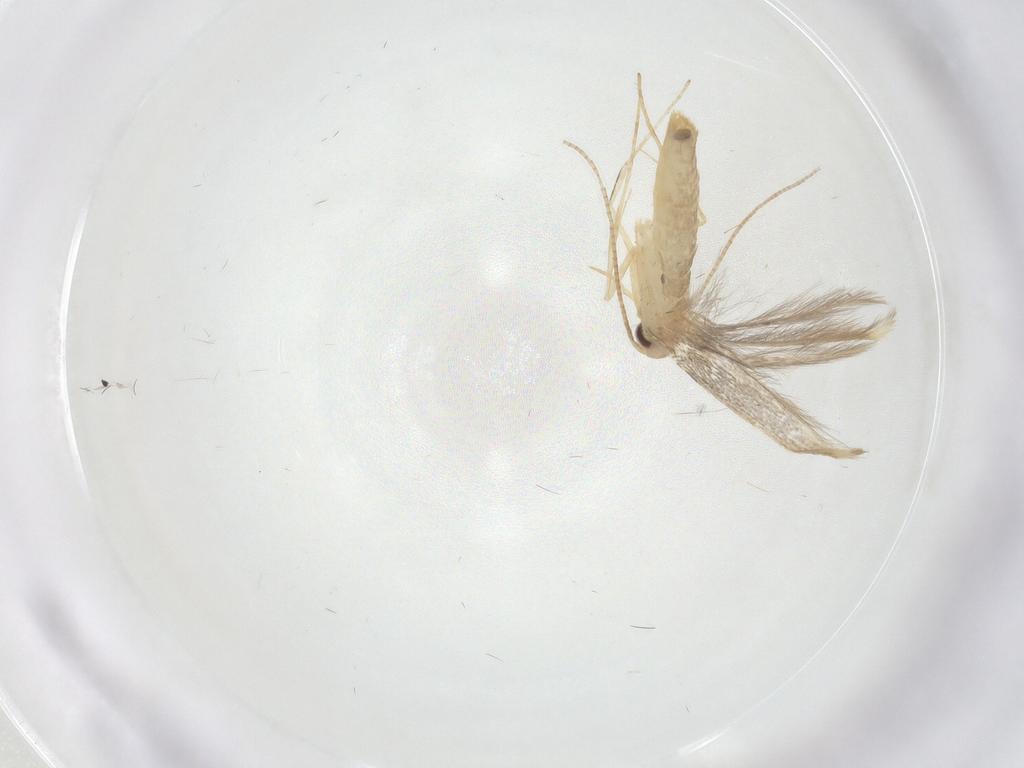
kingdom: Animalia
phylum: Arthropoda
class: Insecta
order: Lepidoptera
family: Gracillariidae
